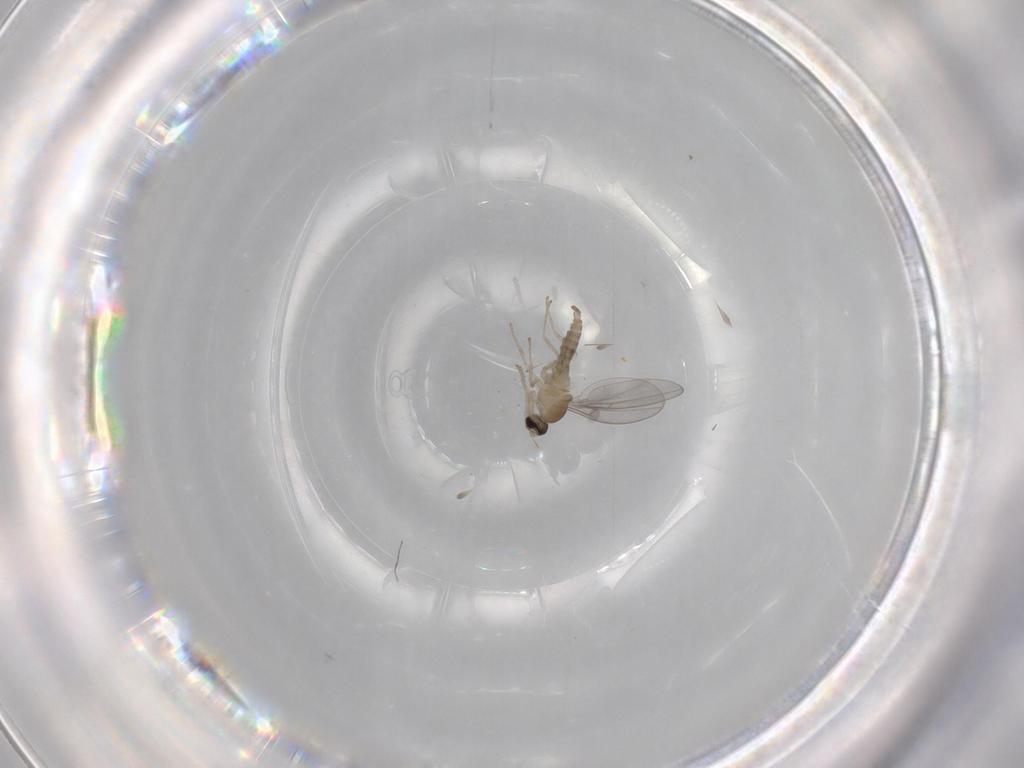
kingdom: Animalia
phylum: Arthropoda
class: Insecta
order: Diptera
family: Cecidomyiidae
